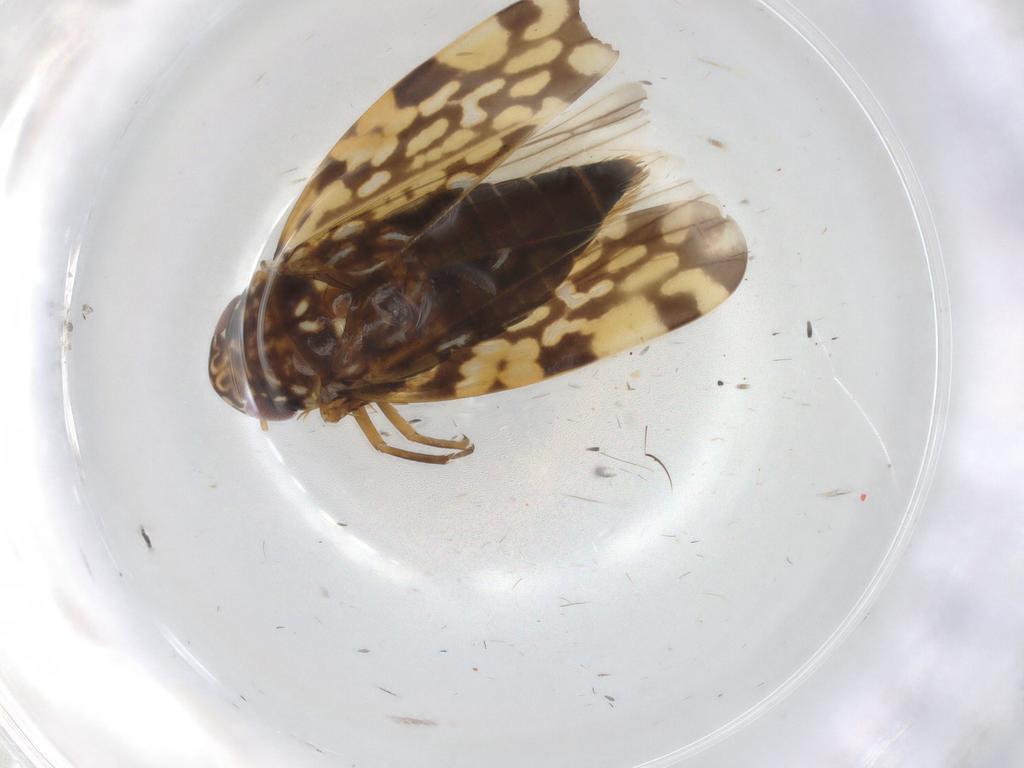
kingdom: Animalia
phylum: Arthropoda
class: Insecta
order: Hemiptera
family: Cicadellidae
